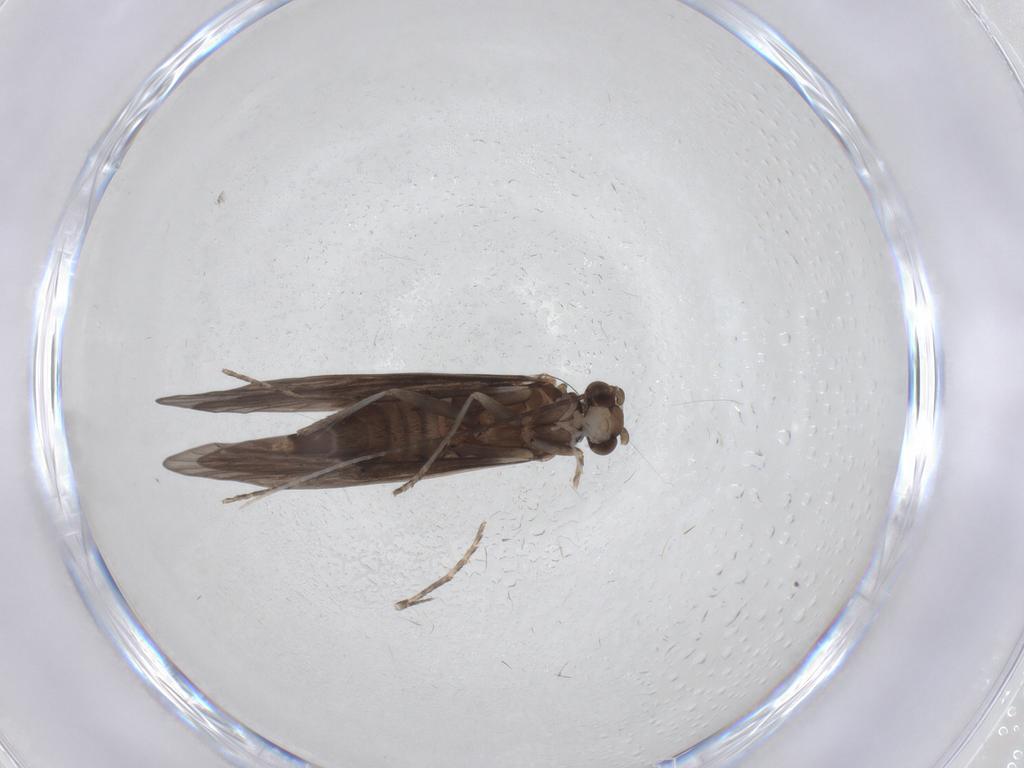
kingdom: Animalia
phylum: Arthropoda
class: Insecta
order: Trichoptera
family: Xiphocentronidae
